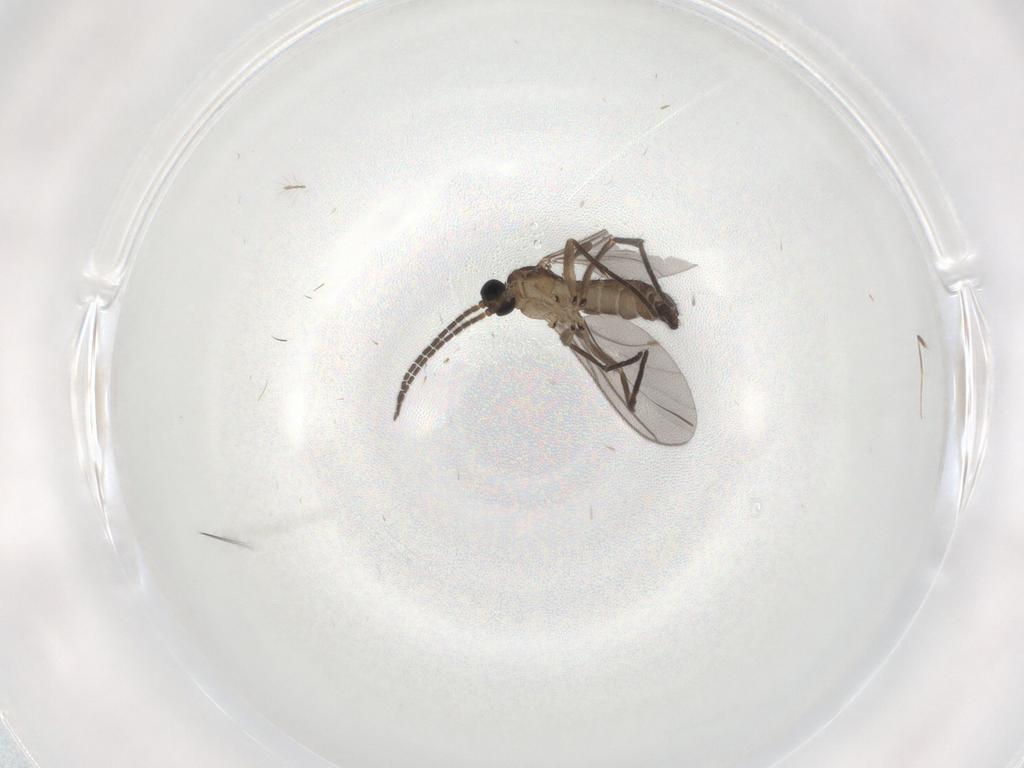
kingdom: Animalia
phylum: Arthropoda
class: Insecta
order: Diptera
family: Sciaridae
